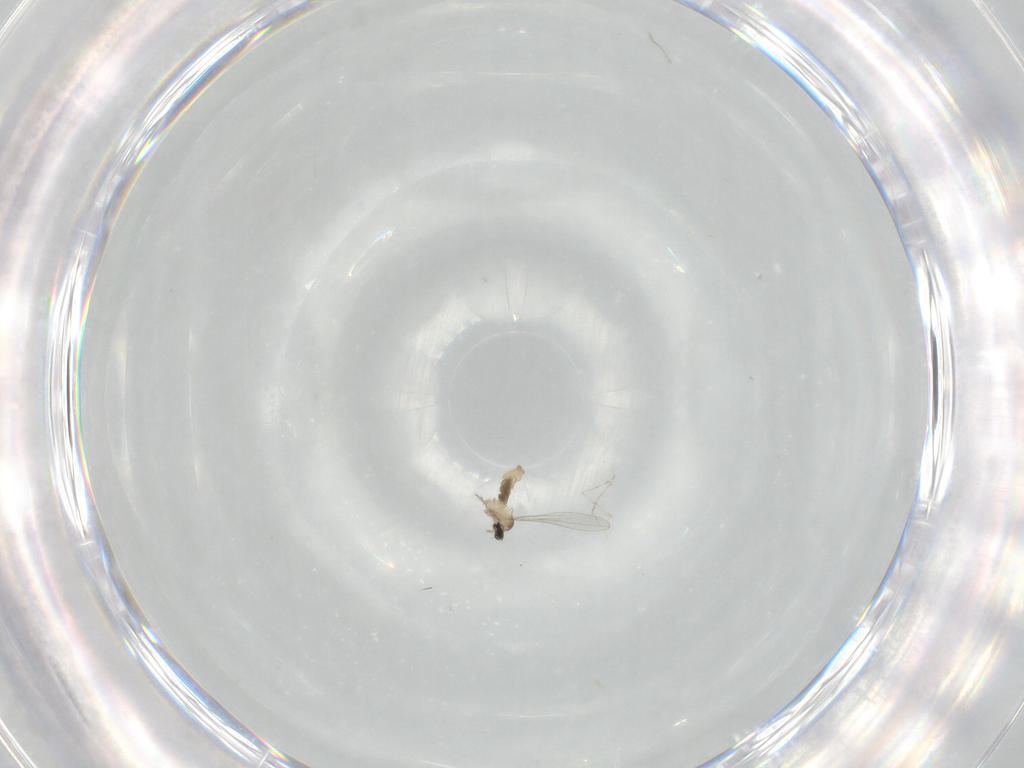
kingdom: Animalia
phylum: Arthropoda
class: Insecta
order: Diptera
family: Cecidomyiidae
